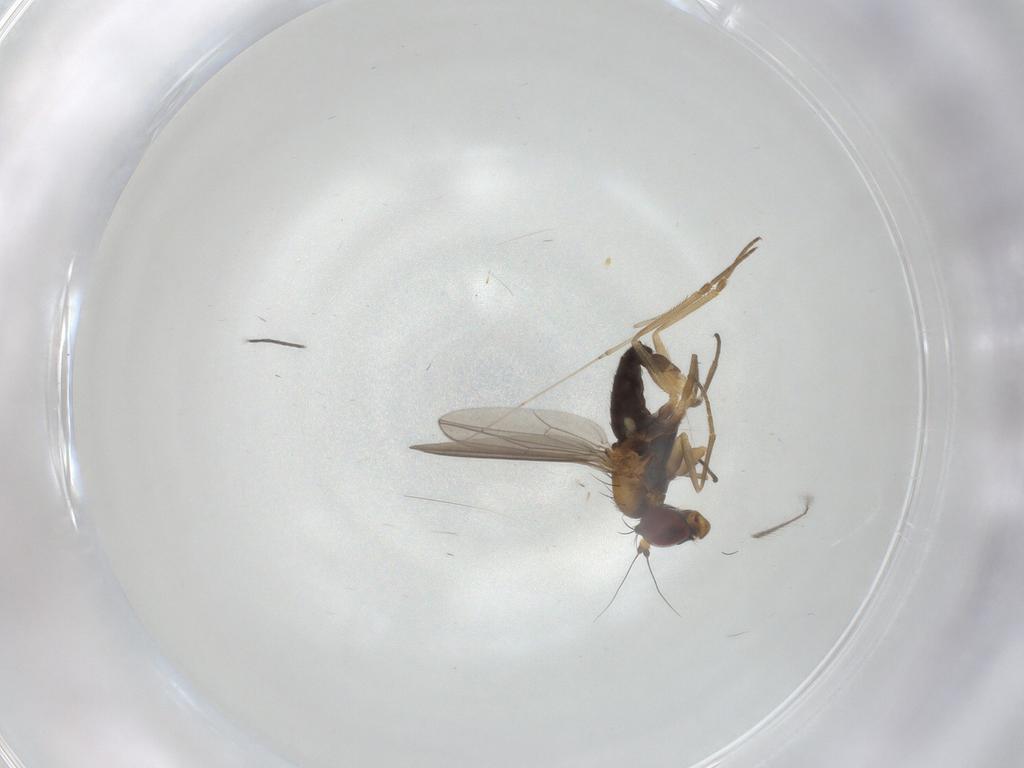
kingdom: Animalia
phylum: Arthropoda
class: Insecta
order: Diptera
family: Dolichopodidae
